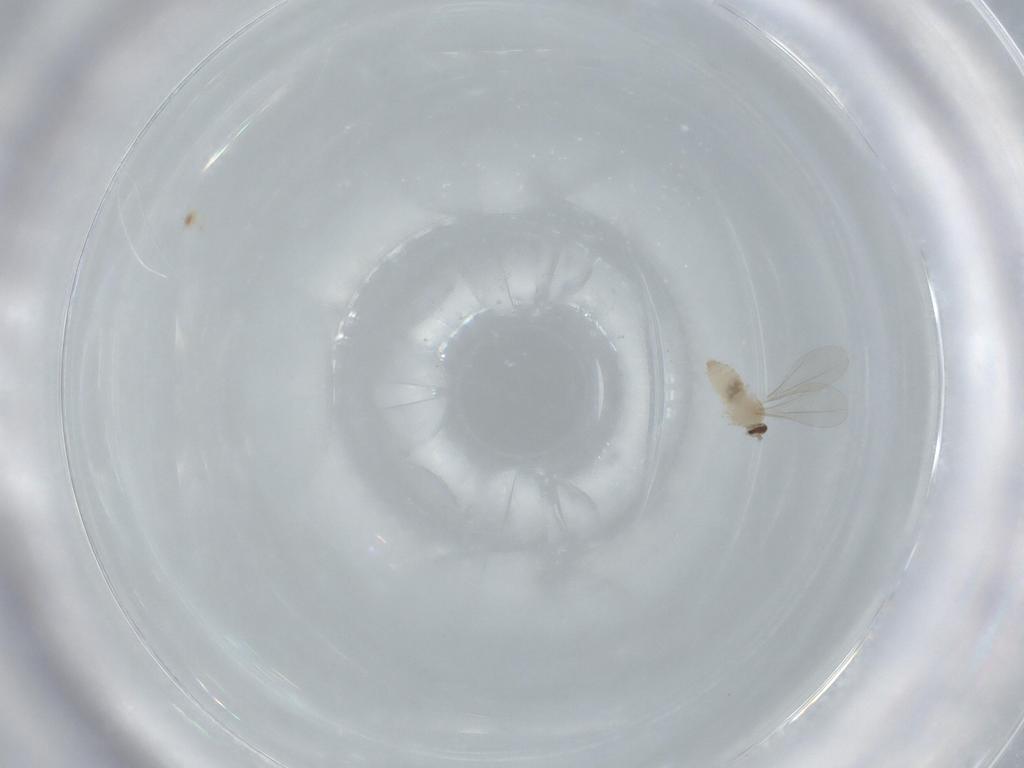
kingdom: Animalia
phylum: Arthropoda
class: Insecta
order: Diptera
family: Cecidomyiidae
